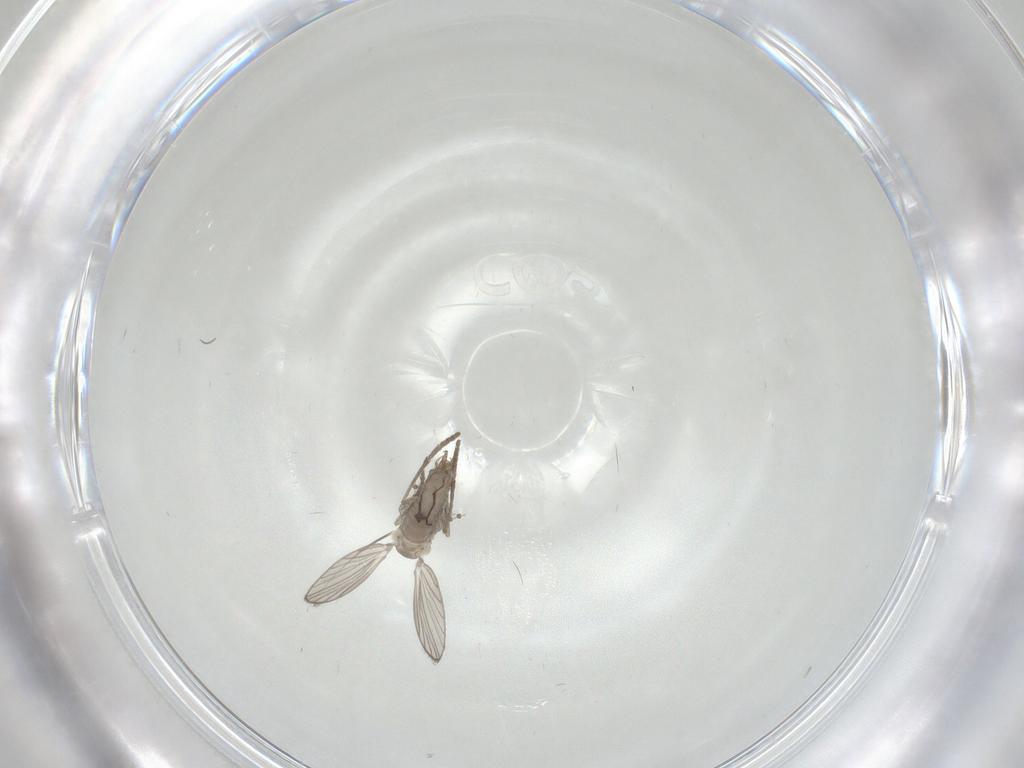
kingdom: Animalia
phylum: Arthropoda
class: Insecta
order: Diptera
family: Psychodidae
